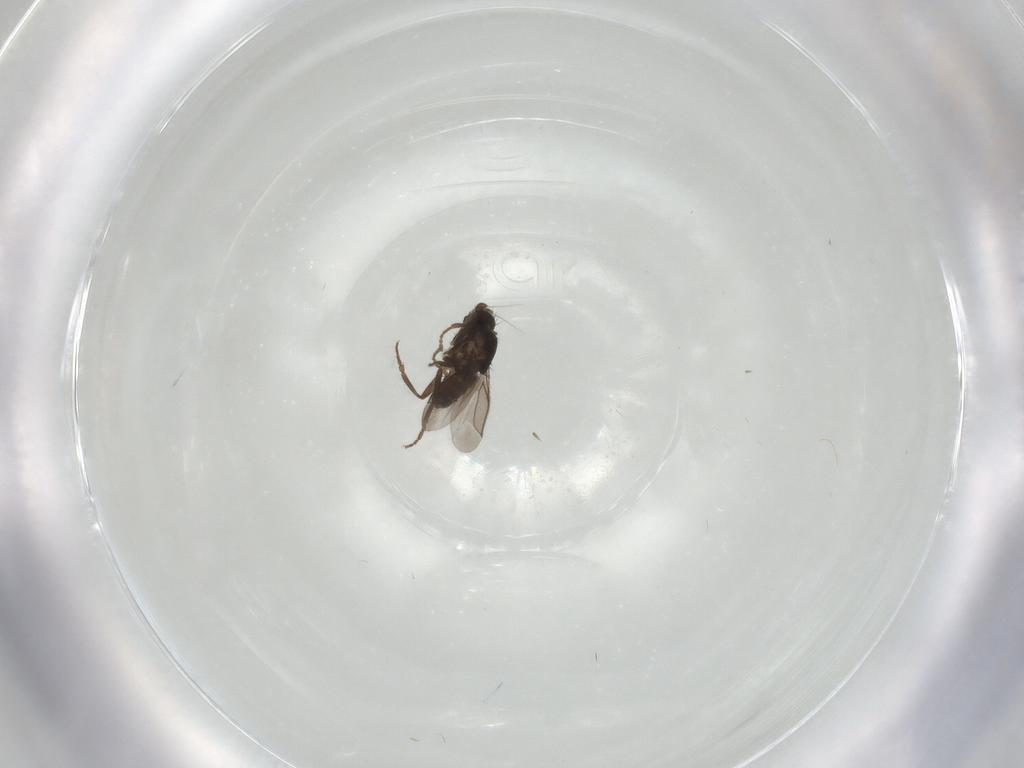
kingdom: Animalia
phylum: Arthropoda
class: Insecta
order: Diptera
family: Sphaeroceridae
